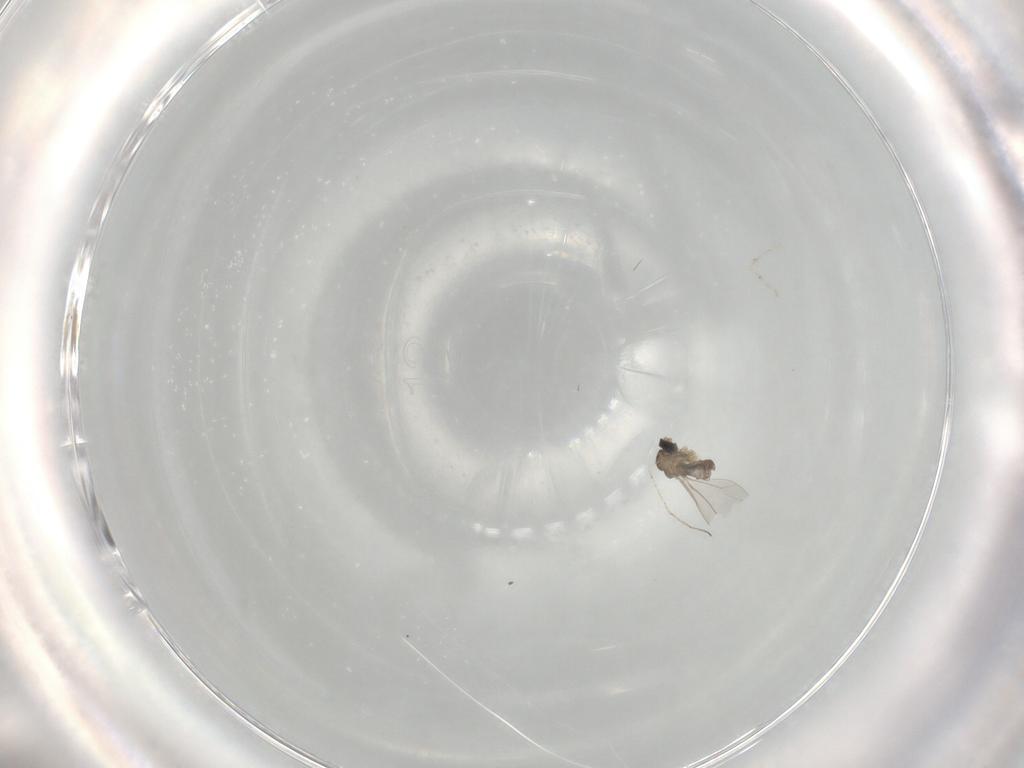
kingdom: Animalia
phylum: Arthropoda
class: Insecta
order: Diptera
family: Cecidomyiidae
